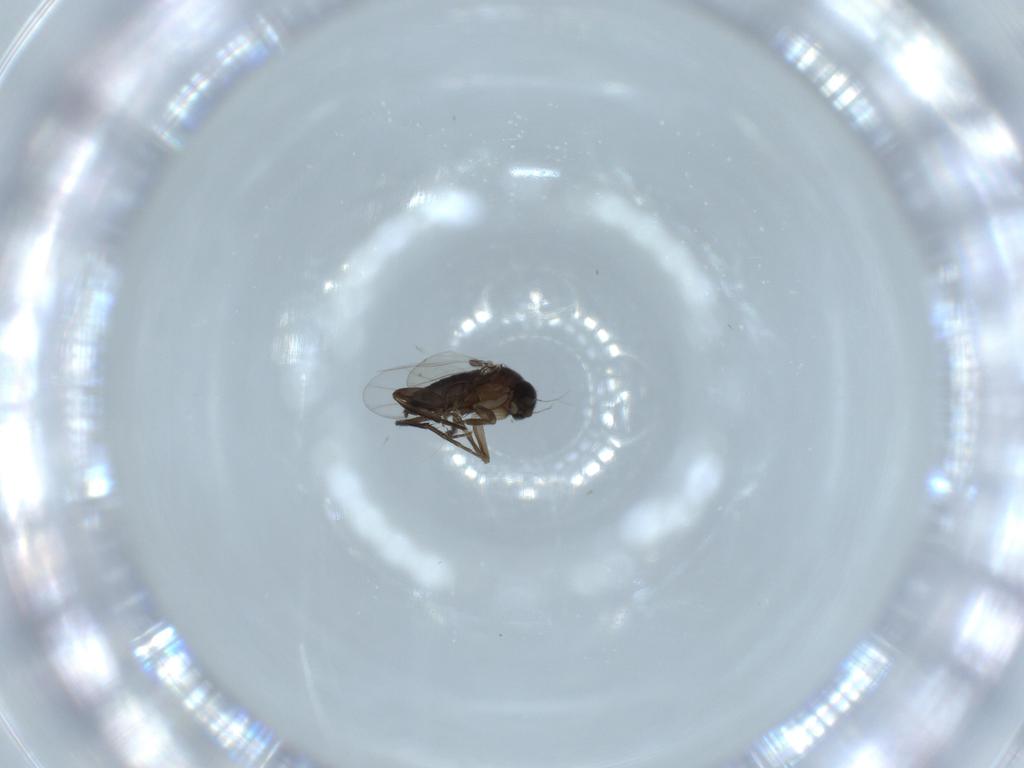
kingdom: Animalia
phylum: Arthropoda
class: Insecta
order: Diptera
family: Phoridae
